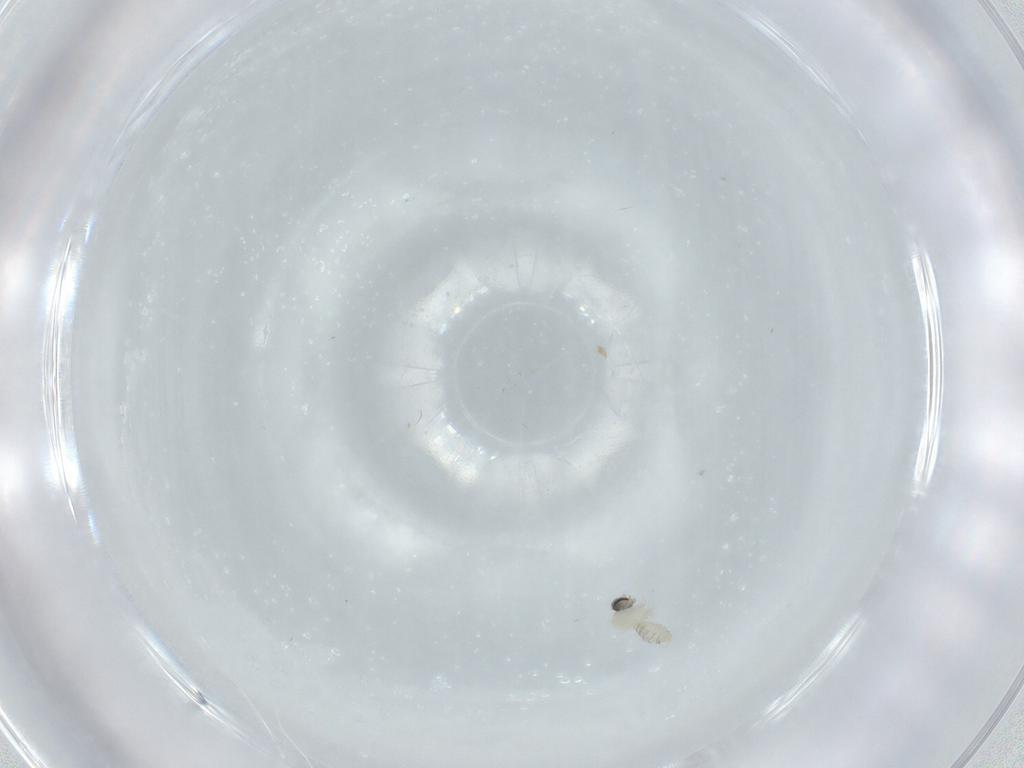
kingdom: Animalia
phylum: Arthropoda
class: Insecta
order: Diptera
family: Cecidomyiidae
